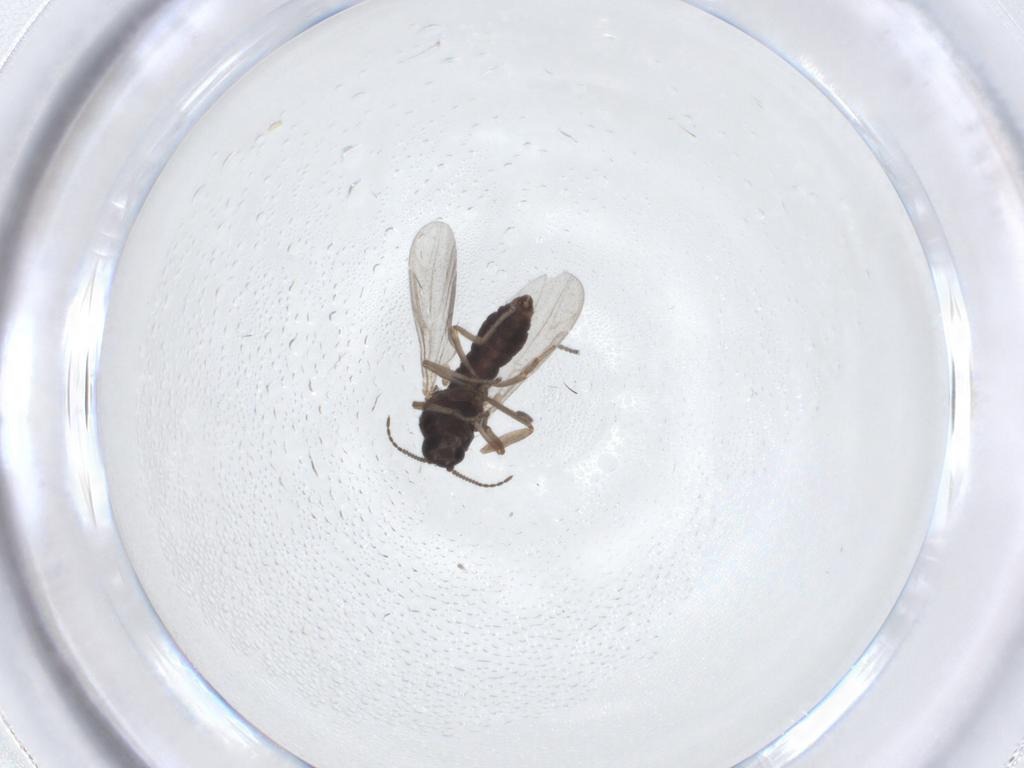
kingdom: Animalia
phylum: Arthropoda
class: Insecta
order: Diptera
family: Ceratopogonidae
